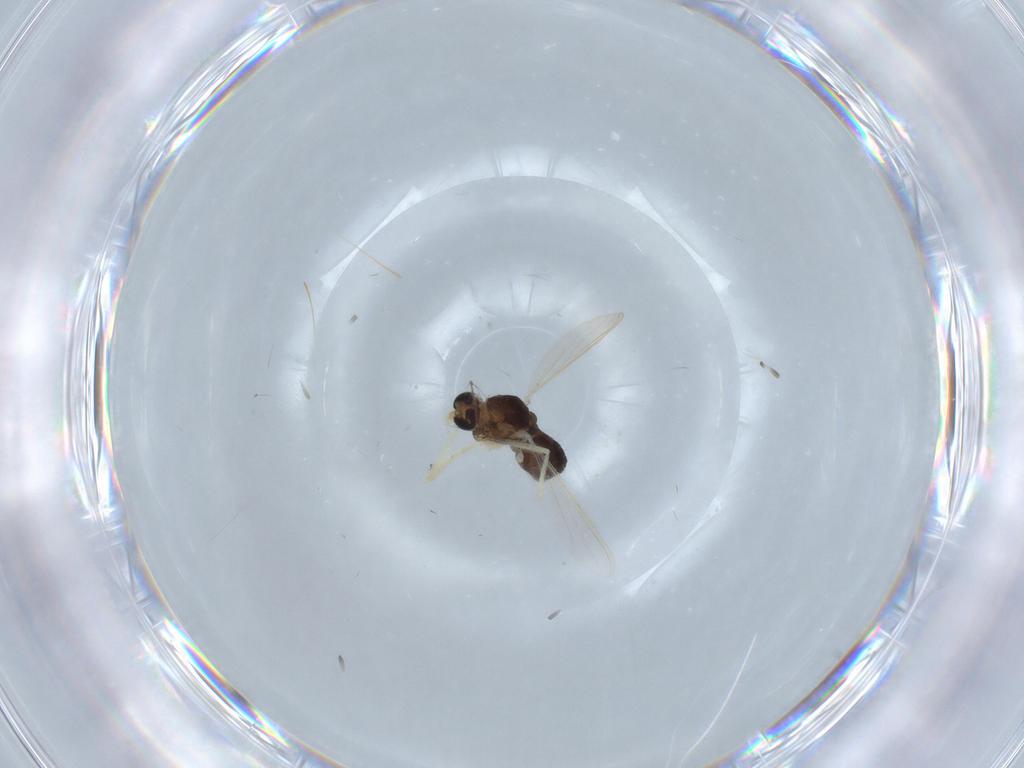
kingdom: Animalia
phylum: Arthropoda
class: Insecta
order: Diptera
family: Chironomidae
